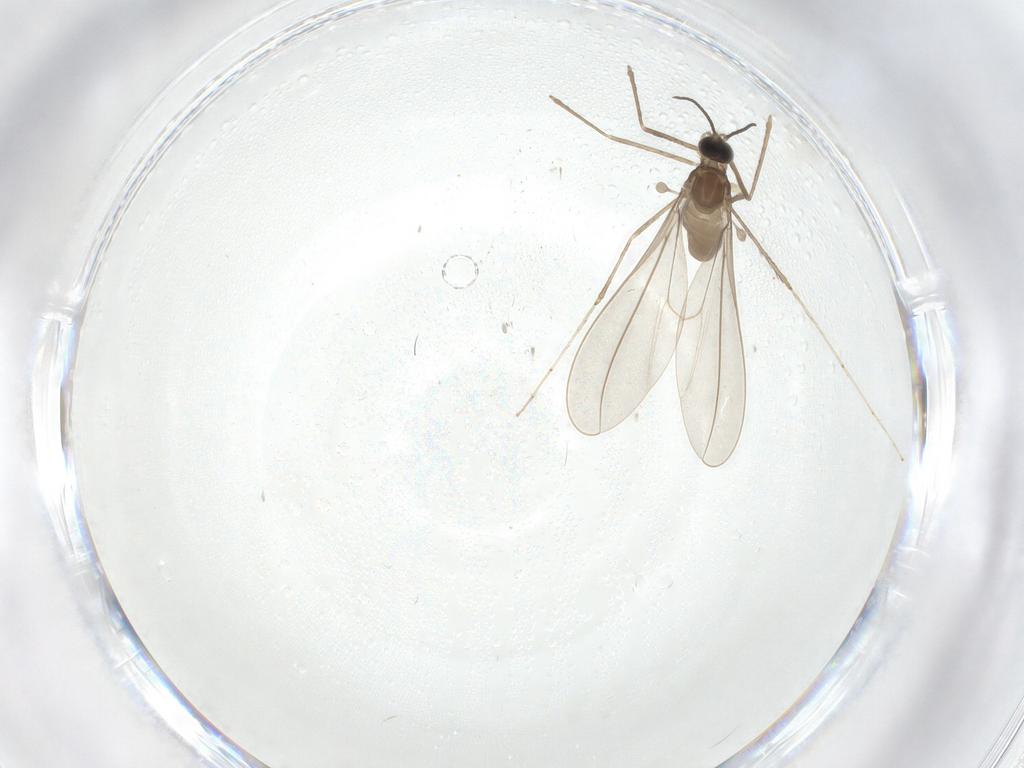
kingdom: Animalia
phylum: Arthropoda
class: Insecta
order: Diptera
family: Cecidomyiidae
